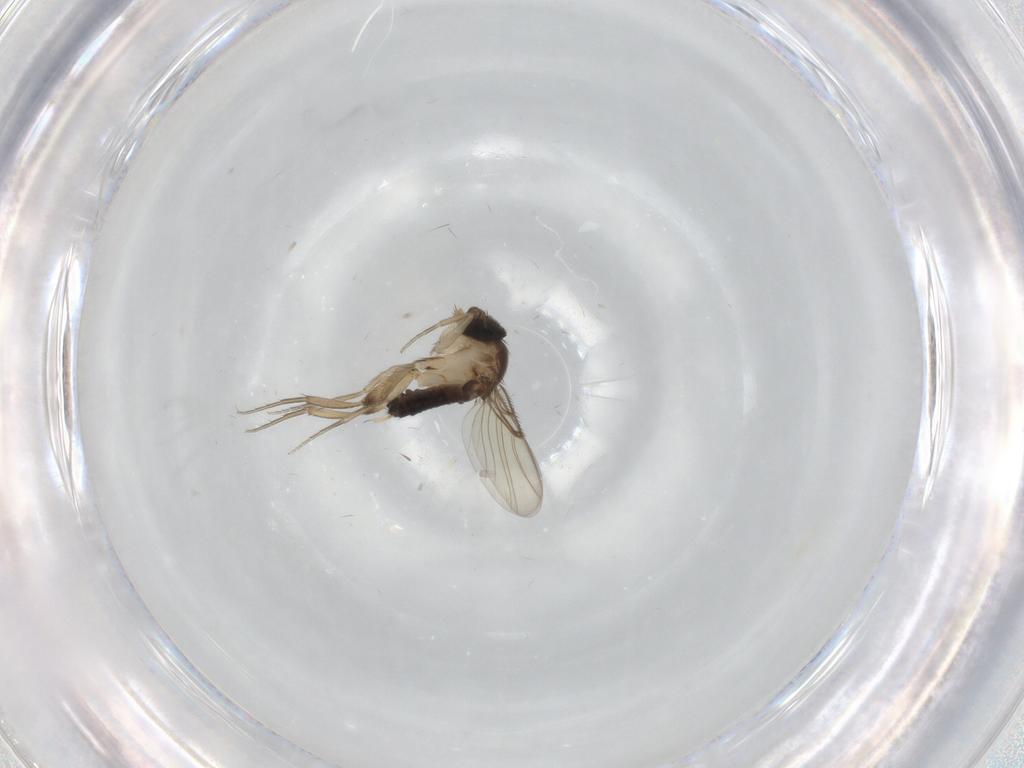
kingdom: Animalia
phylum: Arthropoda
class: Insecta
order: Diptera
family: Phoridae
